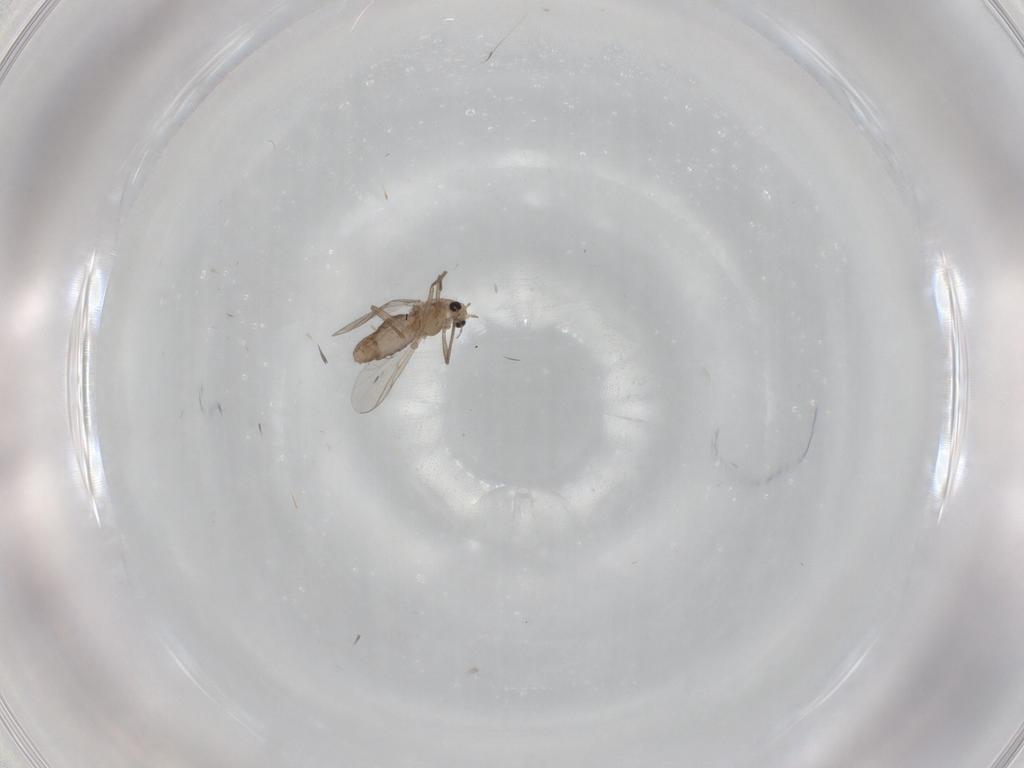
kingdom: Animalia
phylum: Arthropoda
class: Insecta
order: Diptera
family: Chironomidae
